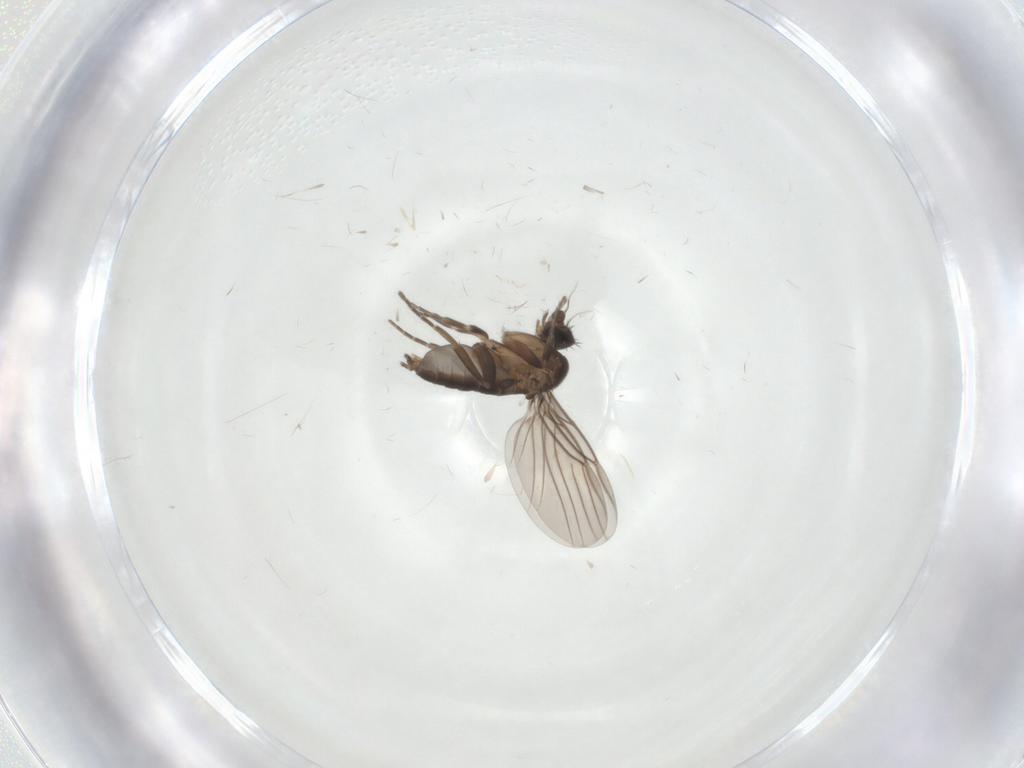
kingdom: Animalia
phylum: Arthropoda
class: Insecta
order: Diptera
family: Cecidomyiidae
